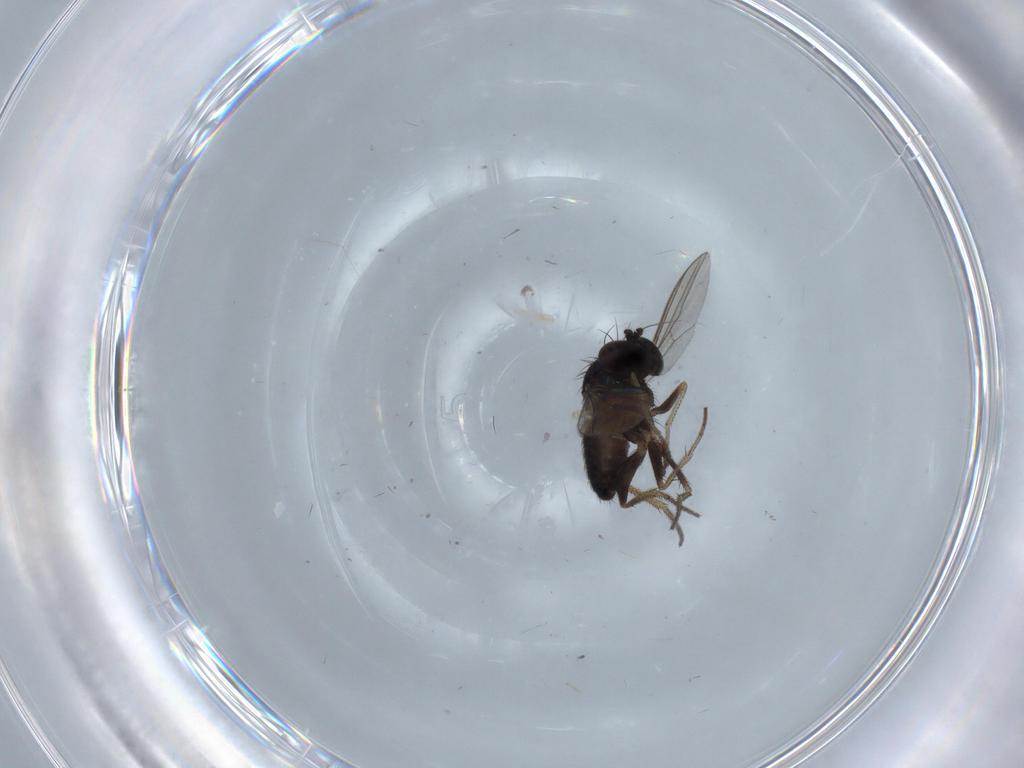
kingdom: Animalia
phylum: Arthropoda
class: Insecta
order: Diptera
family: Dolichopodidae
